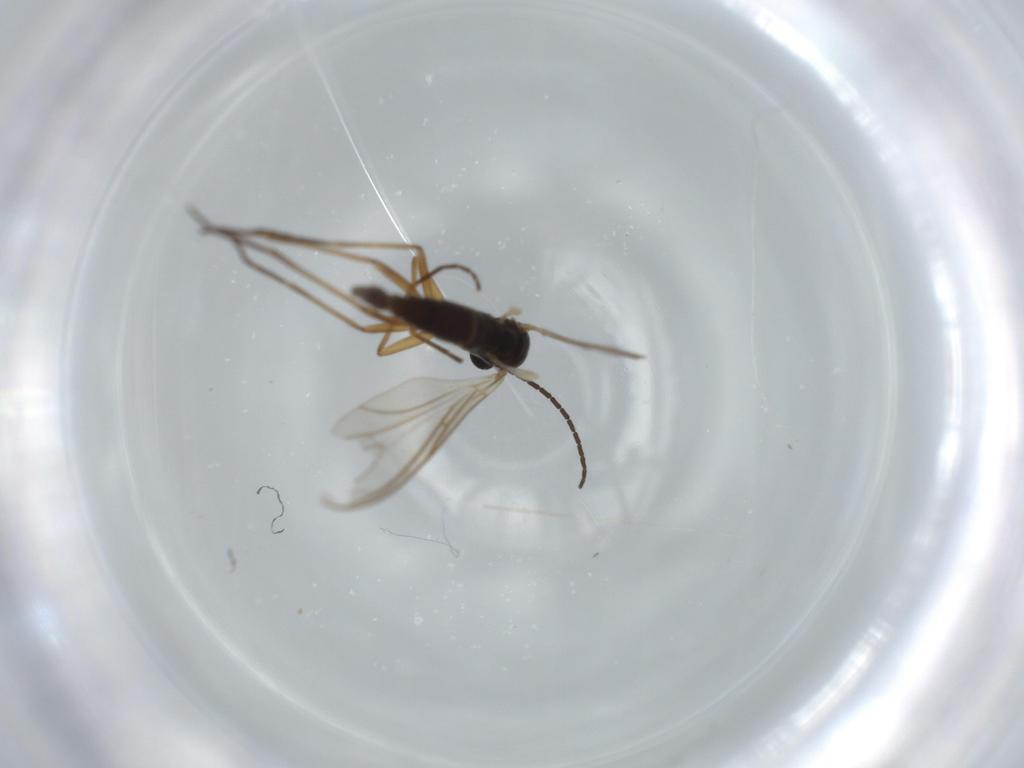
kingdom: Animalia
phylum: Arthropoda
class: Insecta
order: Diptera
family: Sciaridae
